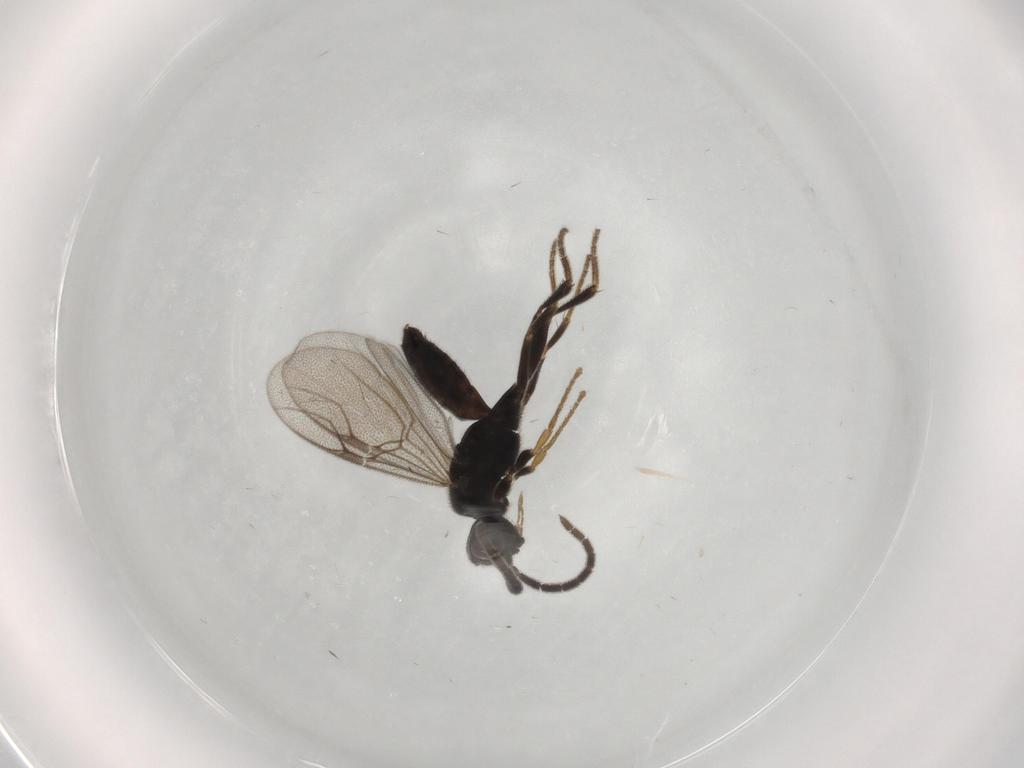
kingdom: Animalia
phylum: Arthropoda
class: Insecta
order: Hymenoptera
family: Dryinidae
